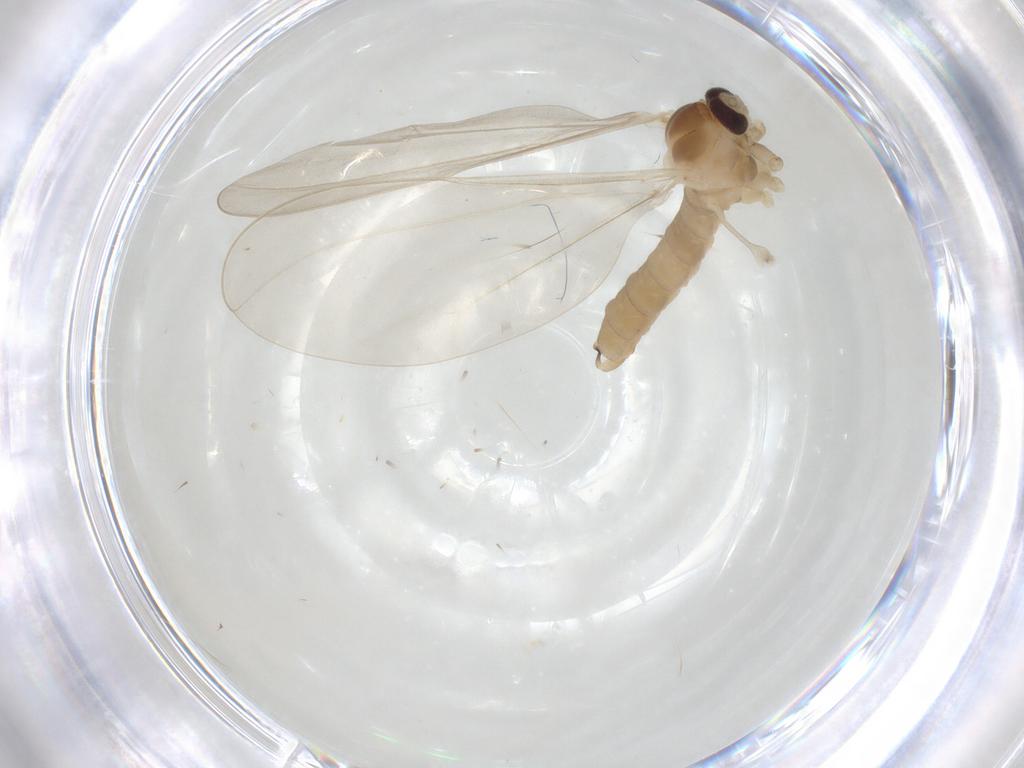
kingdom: Animalia
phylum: Arthropoda
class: Insecta
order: Diptera
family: Cecidomyiidae
